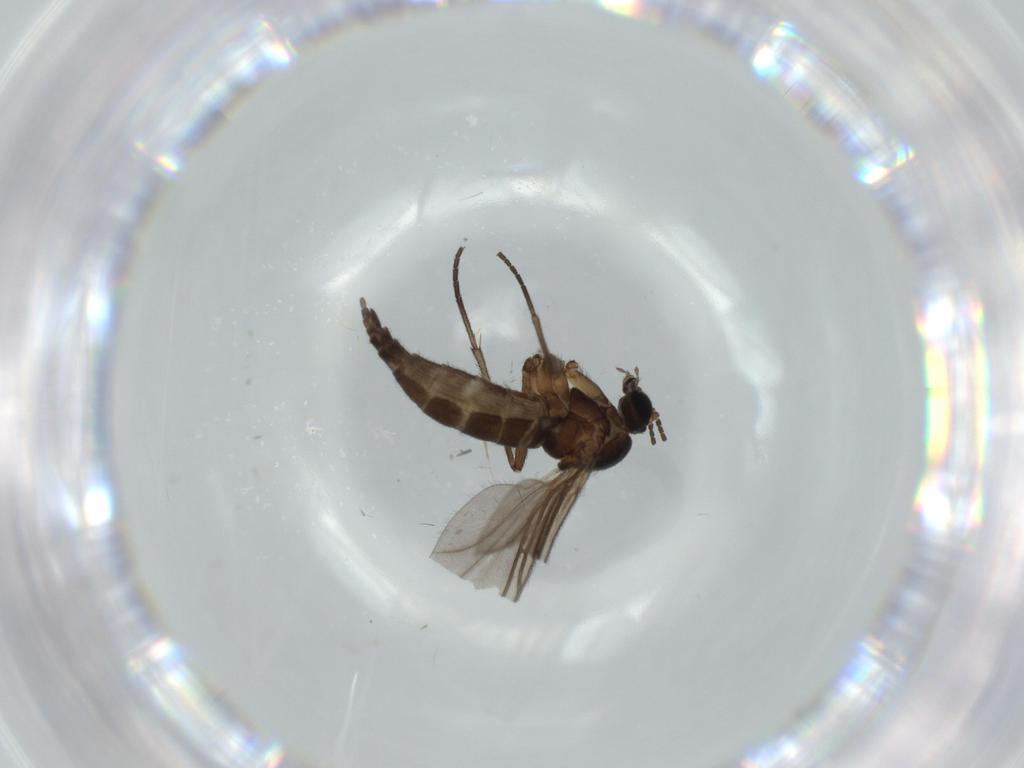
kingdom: Animalia
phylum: Arthropoda
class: Insecta
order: Diptera
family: Sciaridae
